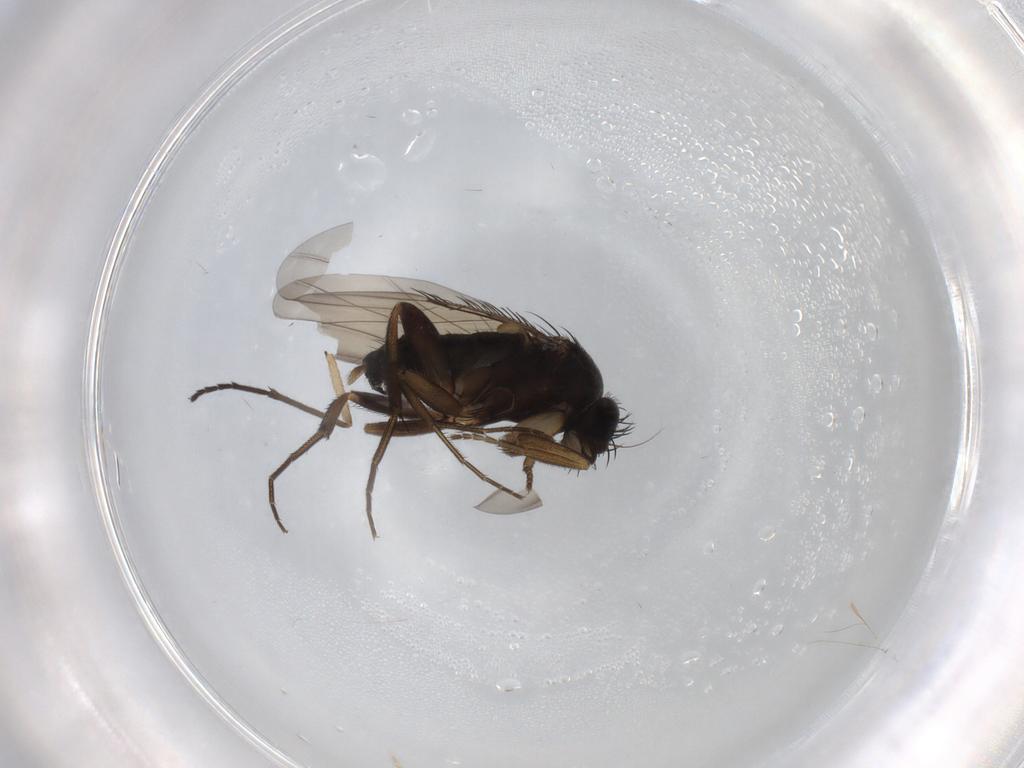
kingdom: Animalia
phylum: Arthropoda
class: Insecta
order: Diptera
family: Phoridae
